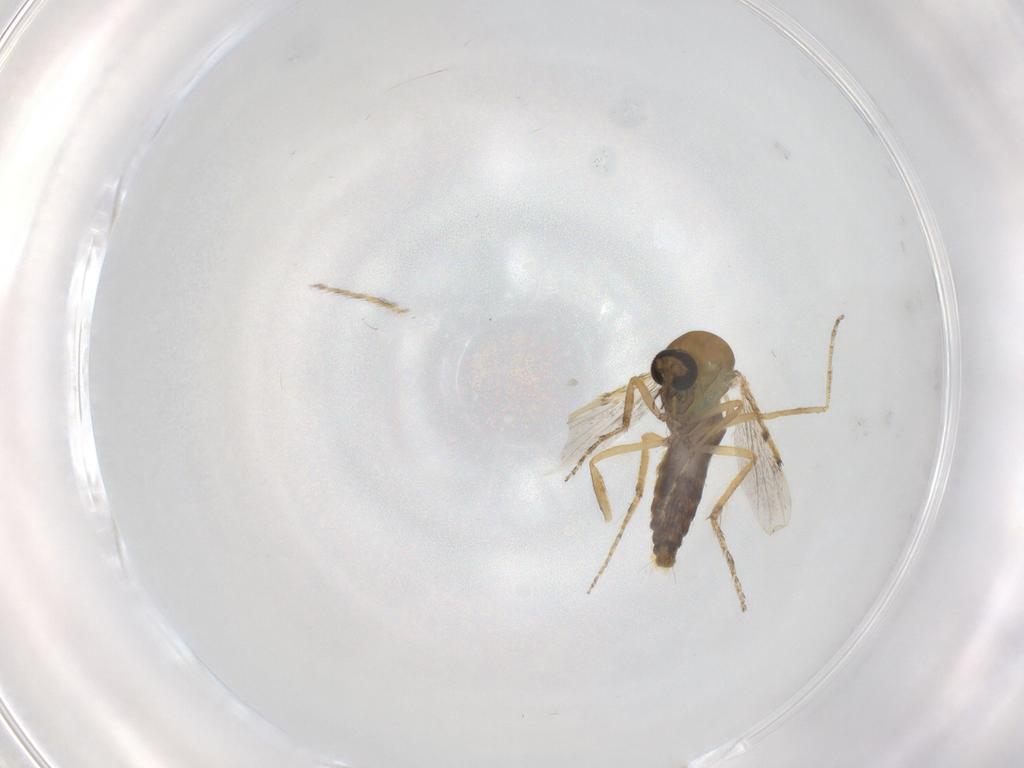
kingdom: Animalia
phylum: Arthropoda
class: Insecta
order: Diptera
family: Ceratopogonidae
